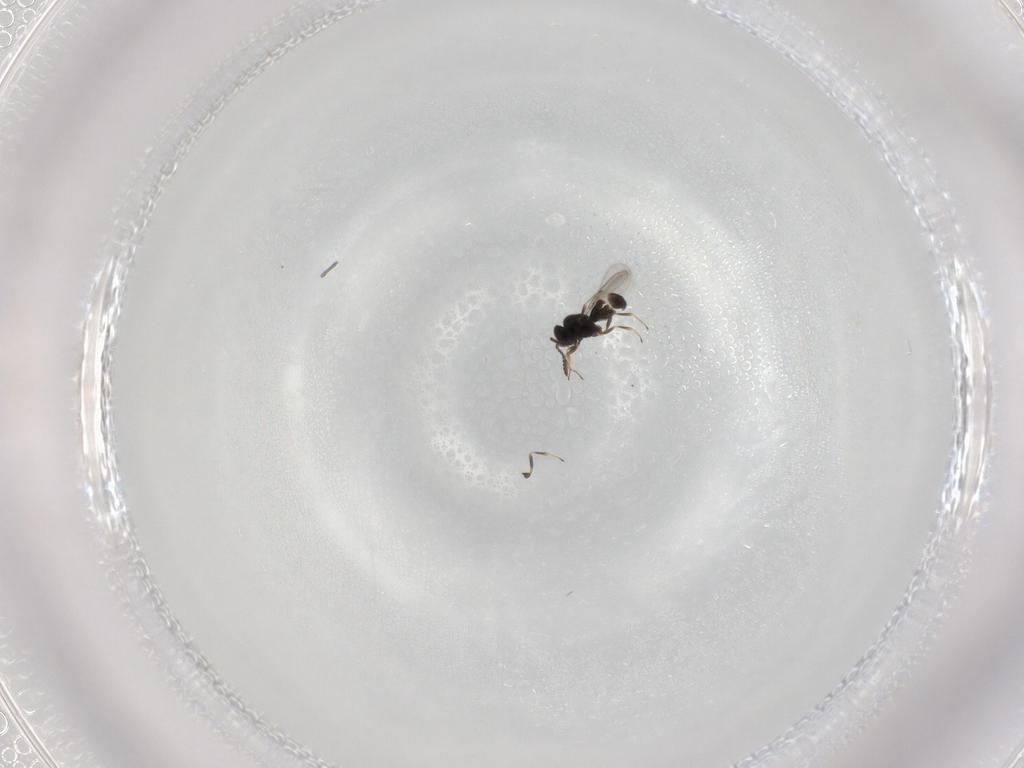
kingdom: Animalia
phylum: Arthropoda
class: Insecta
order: Hymenoptera
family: Scelionidae
